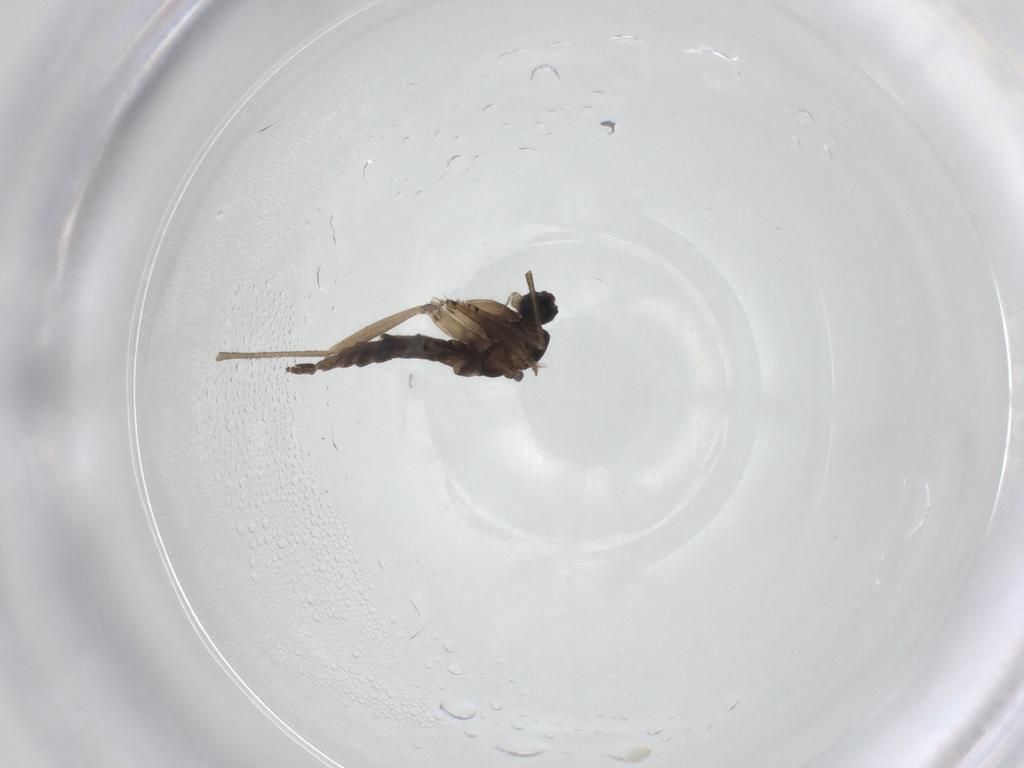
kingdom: Animalia
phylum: Arthropoda
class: Insecta
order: Diptera
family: Sciaridae
